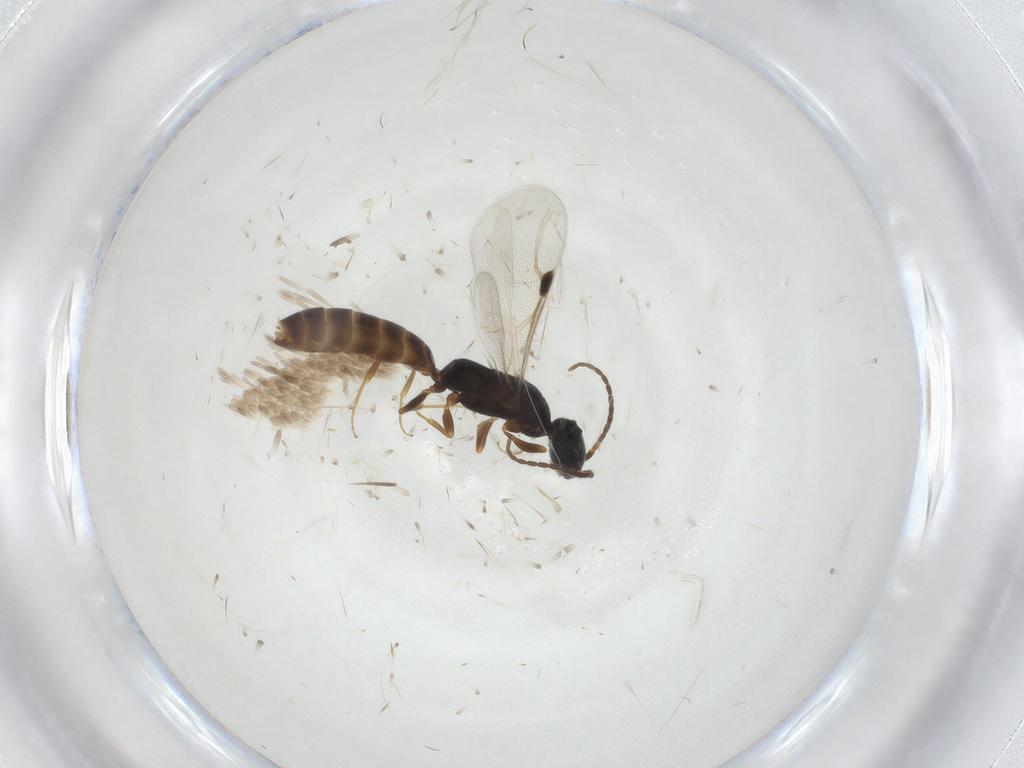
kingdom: Animalia
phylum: Arthropoda
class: Insecta
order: Hymenoptera
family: Bethylidae
